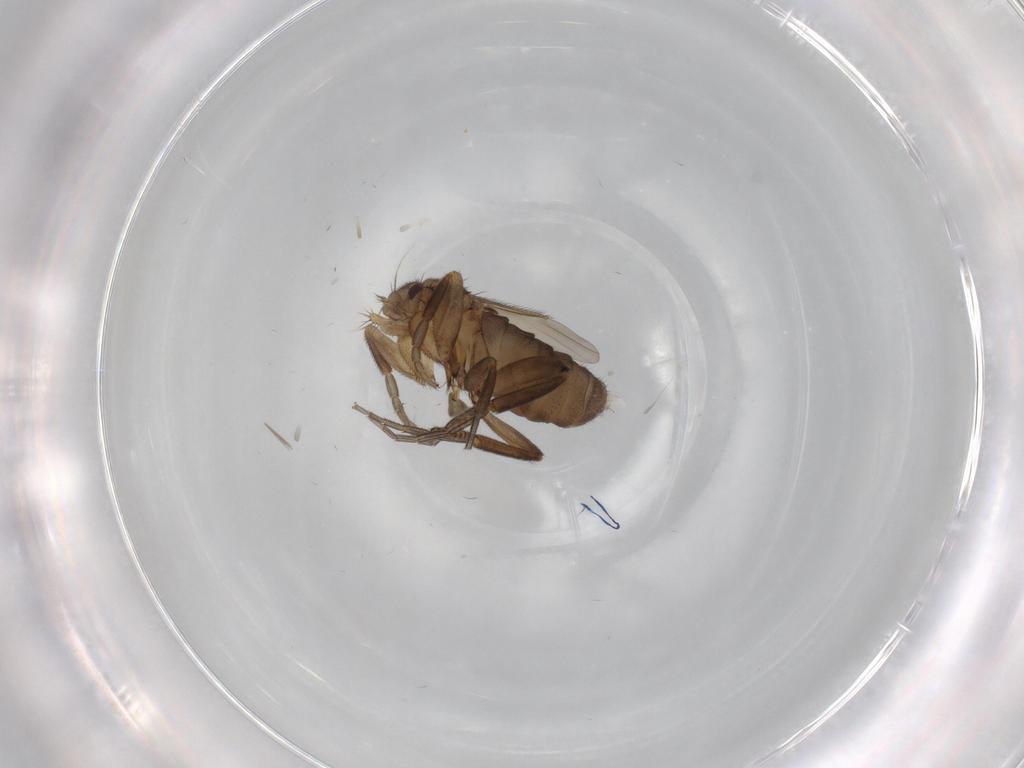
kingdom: Animalia
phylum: Arthropoda
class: Insecta
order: Diptera
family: Phoridae
